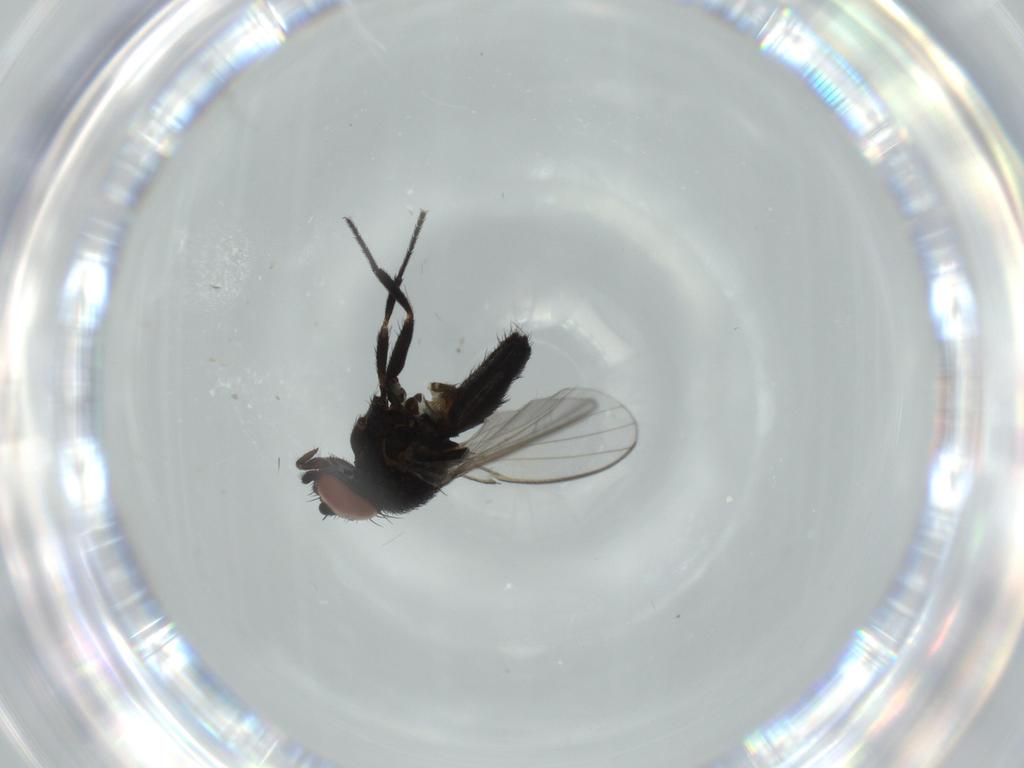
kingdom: Animalia
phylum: Arthropoda
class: Insecta
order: Diptera
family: Milichiidae
